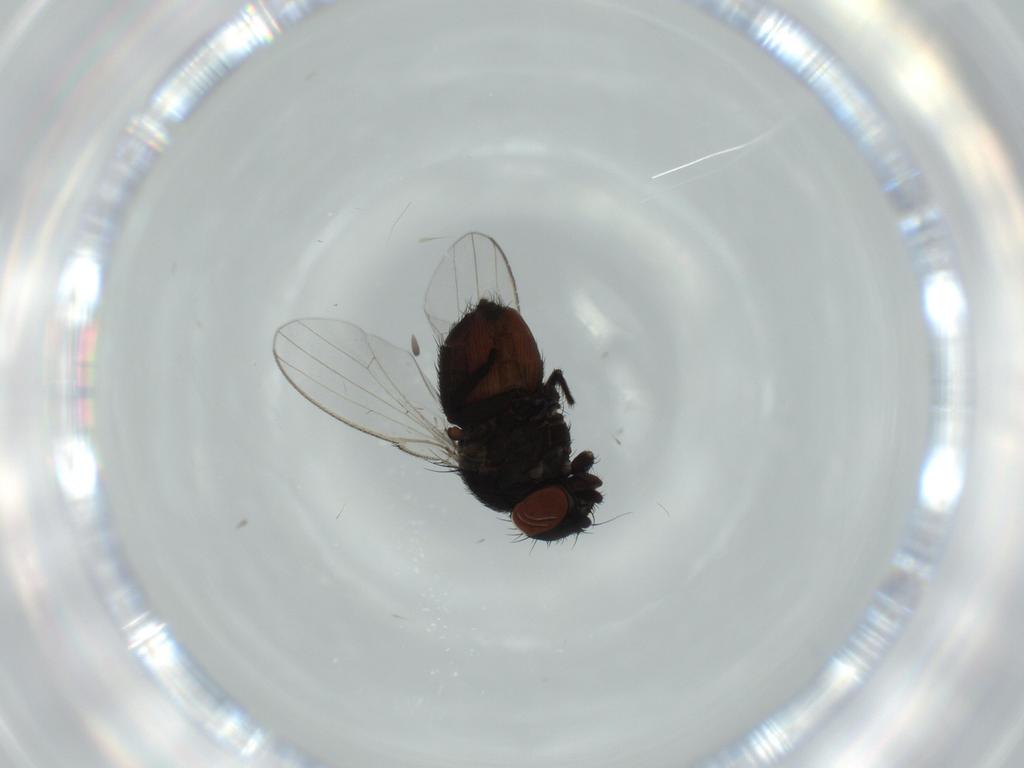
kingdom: Animalia
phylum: Arthropoda
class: Insecta
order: Diptera
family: Milichiidae
